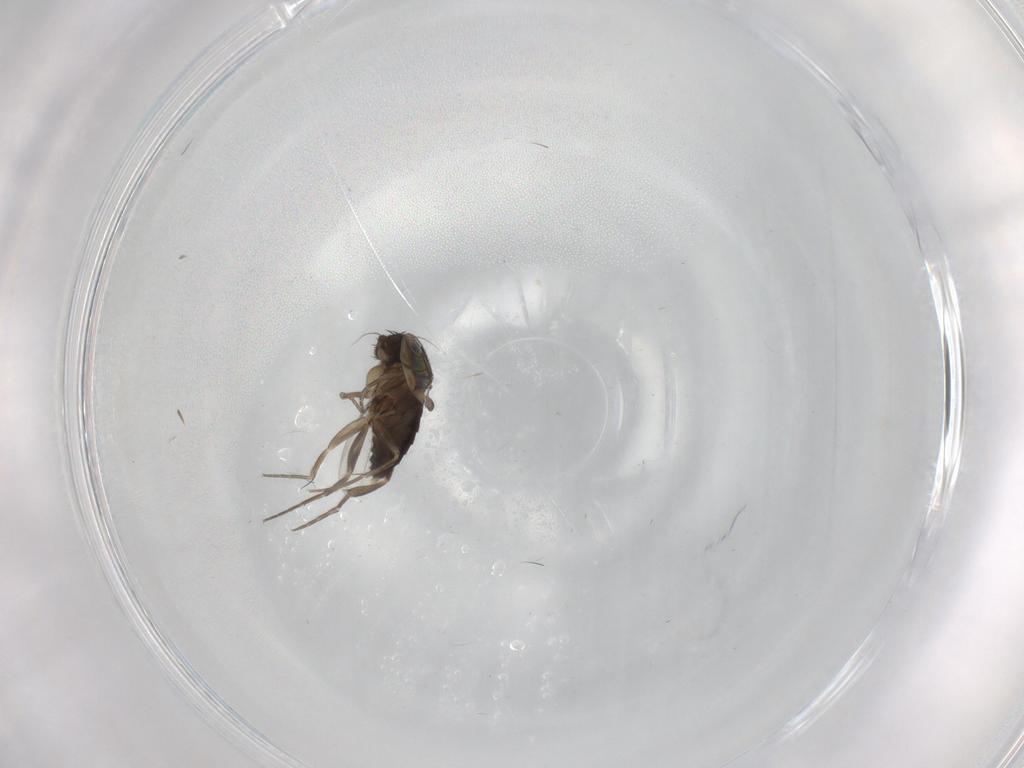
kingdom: Animalia
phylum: Arthropoda
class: Insecta
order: Diptera
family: Phoridae
